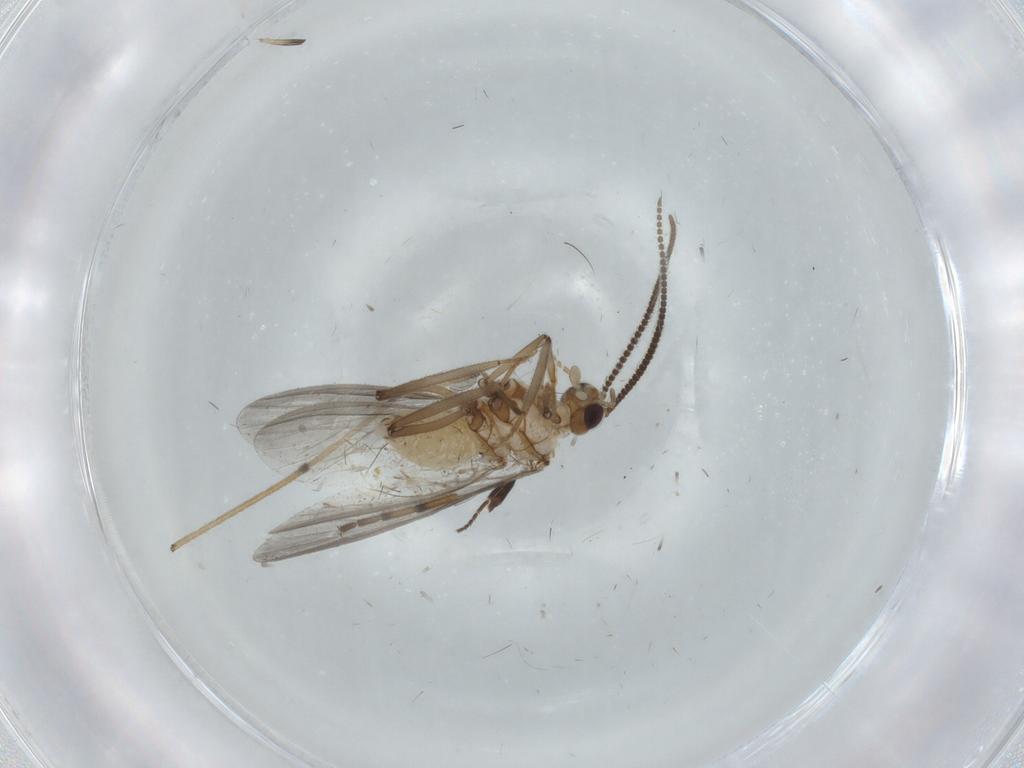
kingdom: Animalia
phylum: Arthropoda
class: Insecta
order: Neuroptera
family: Coniopterygidae
